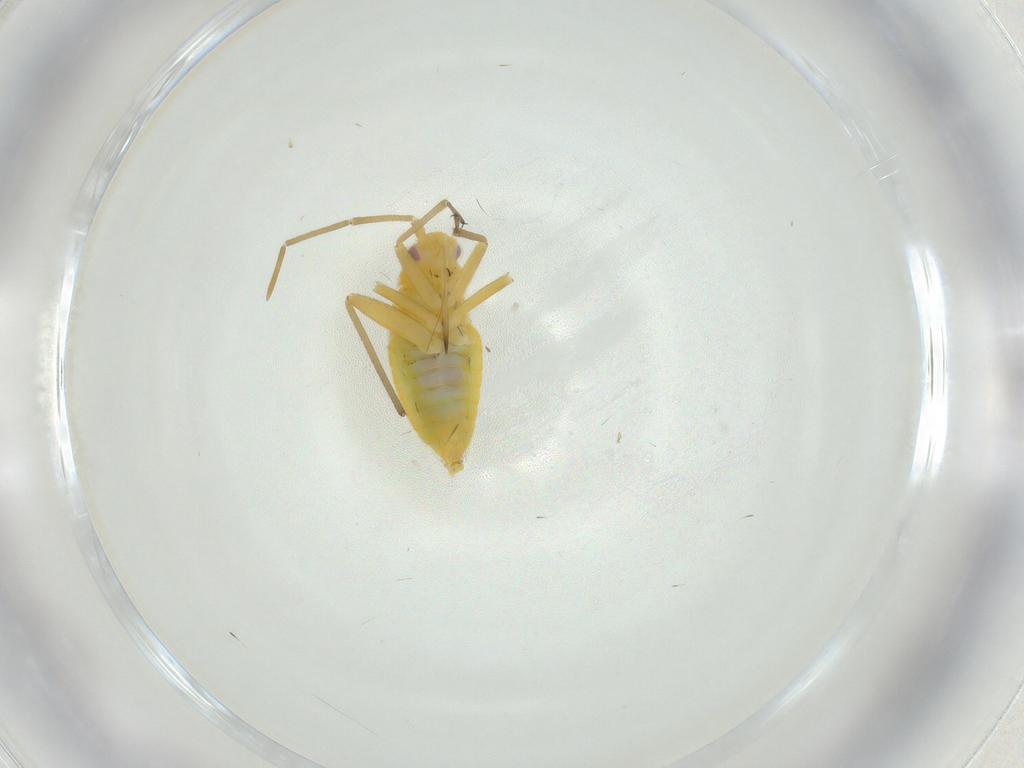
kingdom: Animalia
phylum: Arthropoda
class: Insecta
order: Hemiptera
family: Miridae
